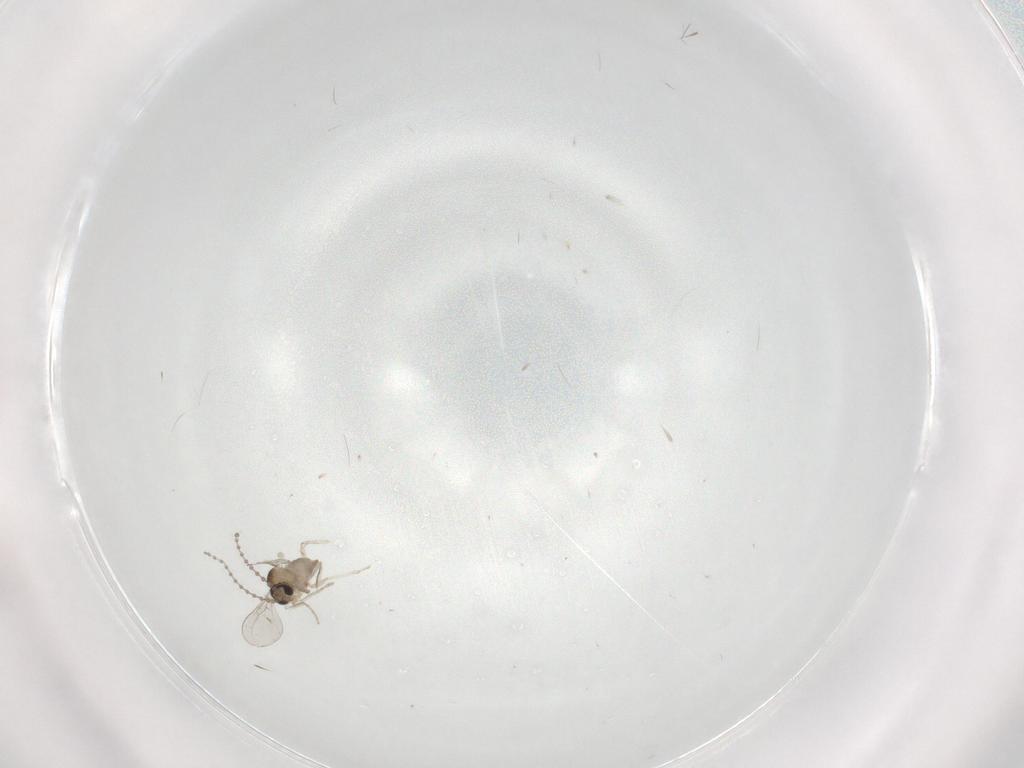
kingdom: Animalia
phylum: Arthropoda
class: Insecta
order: Diptera
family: Cecidomyiidae
